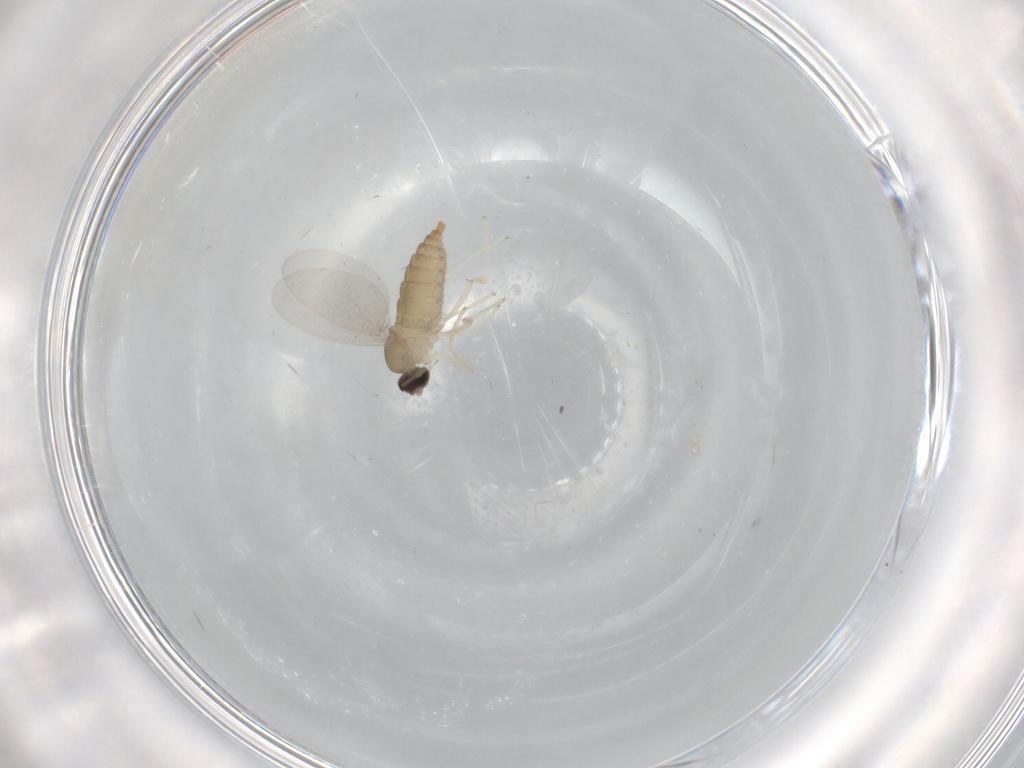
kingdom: Animalia
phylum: Arthropoda
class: Insecta
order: Diptera
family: Cecidomyiidae
